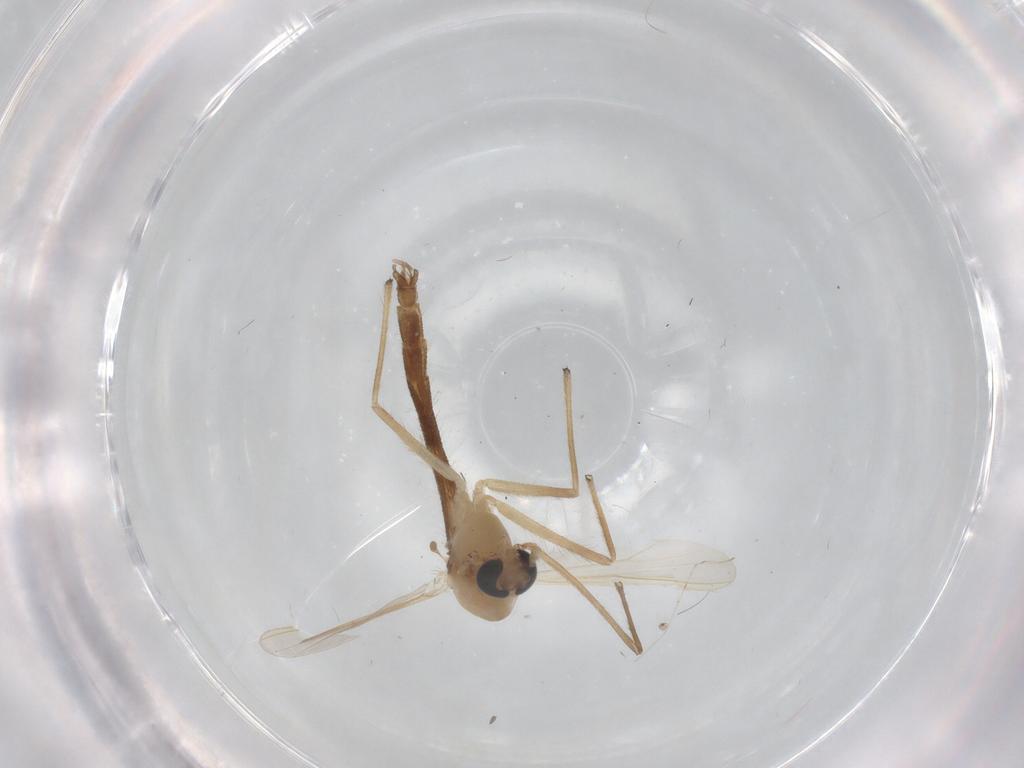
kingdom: Animalia
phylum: Arthropoda
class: Insecta
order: Diptera
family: Chironomidae
